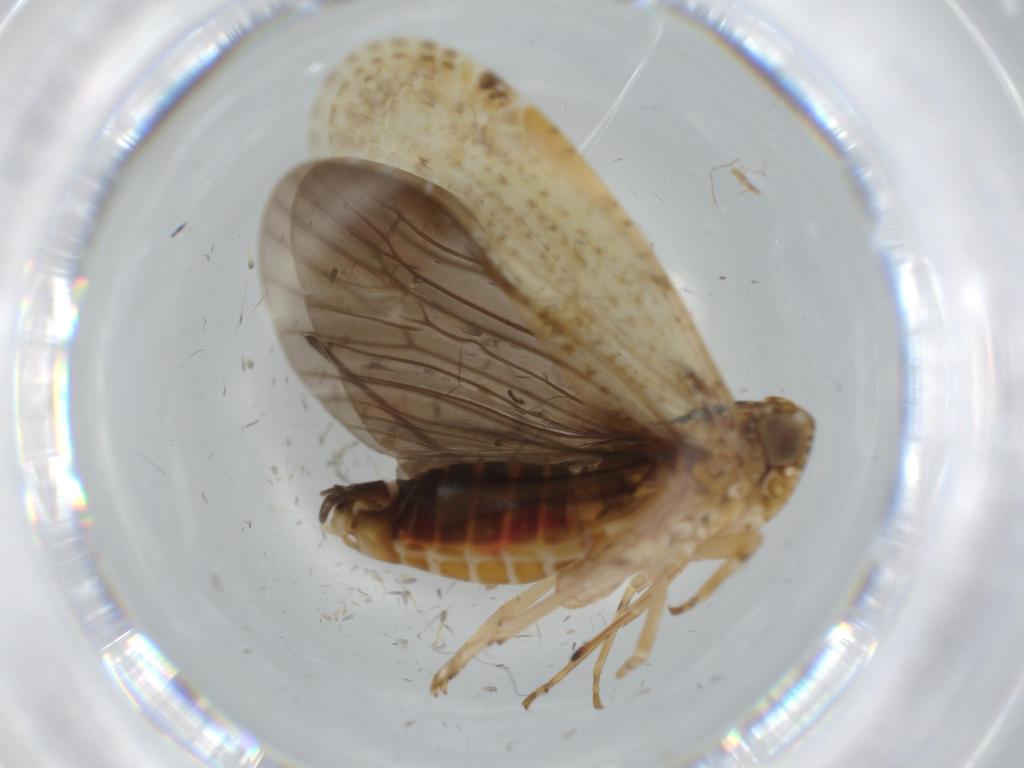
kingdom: Animalia
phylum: Arthropoda
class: Insecta
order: Hemiptera
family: Achilidae
